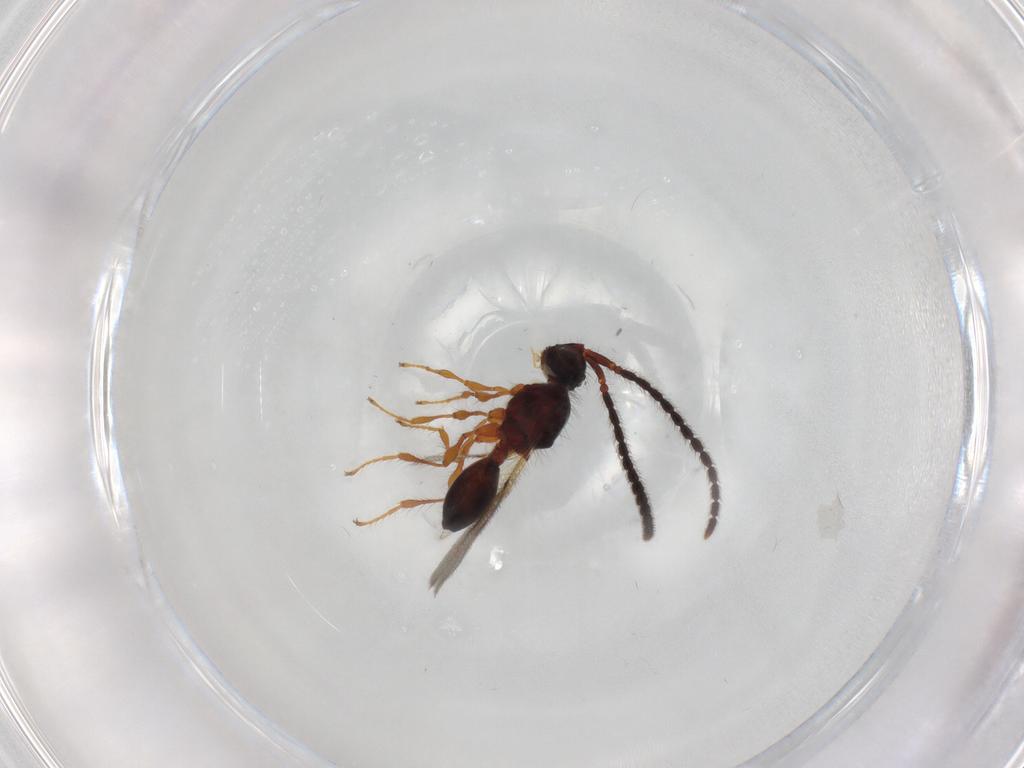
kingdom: Animalia
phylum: Arthropoda
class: Insecta
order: Hymenoptera
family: Diapriidae
